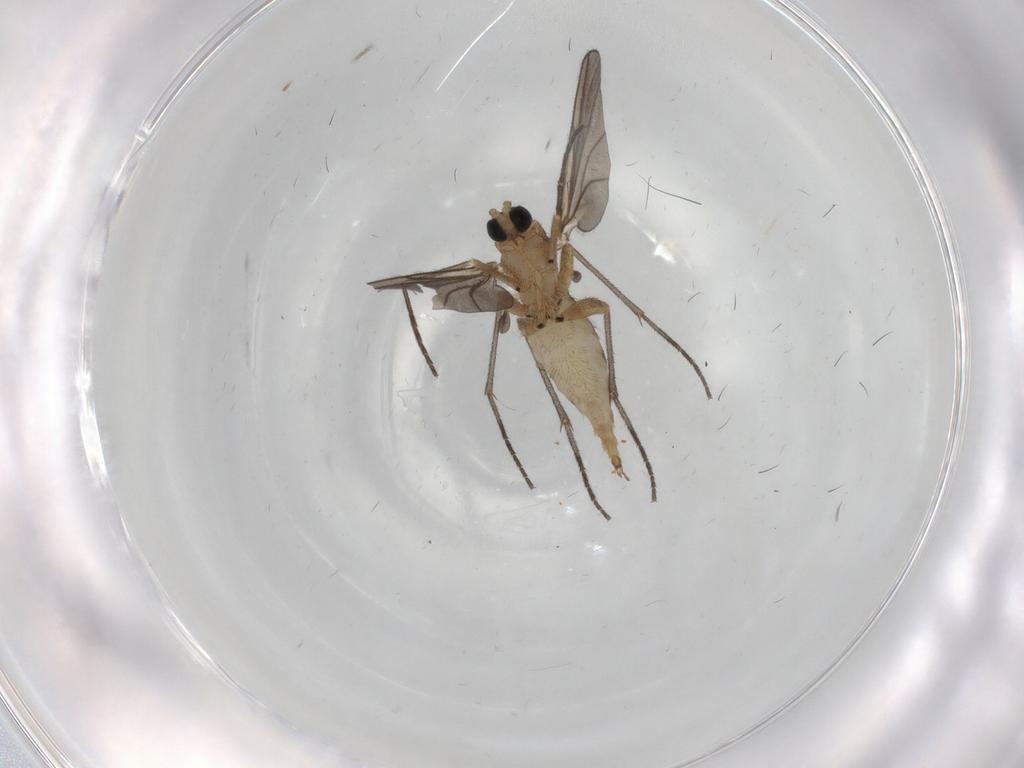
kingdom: Animalia
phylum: Arthropoda
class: Insecta
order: Diptera
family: Sciaridae
